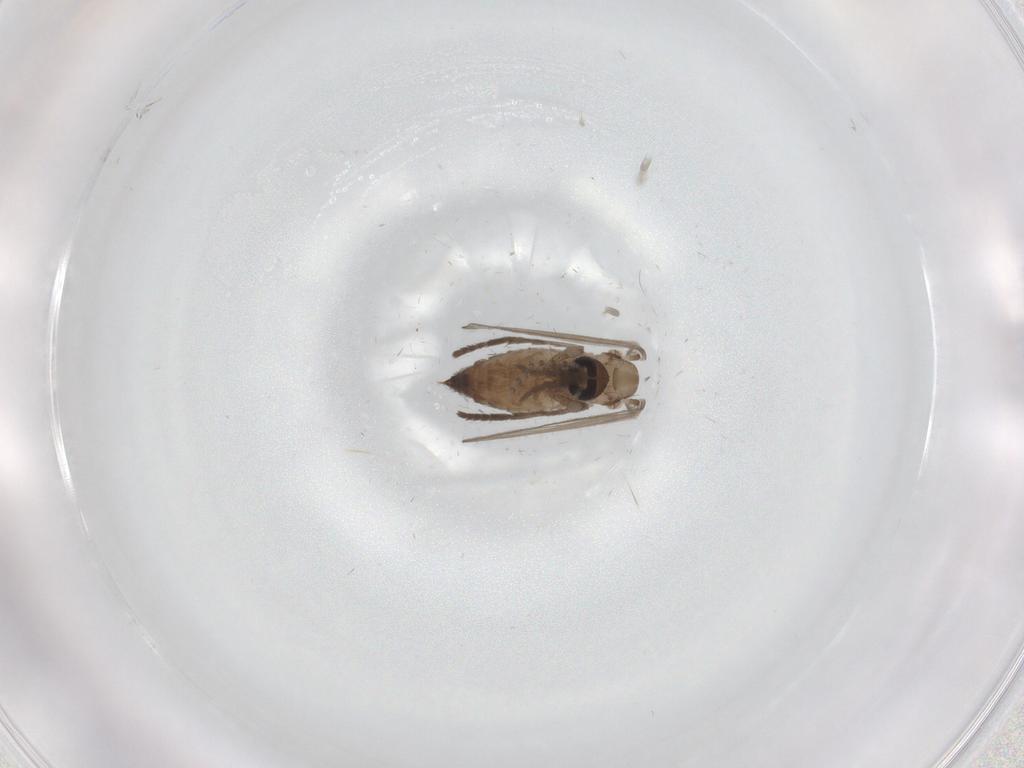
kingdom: Animalia
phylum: Arthropoda
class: Insecta
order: Diptera
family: Psychodidae
